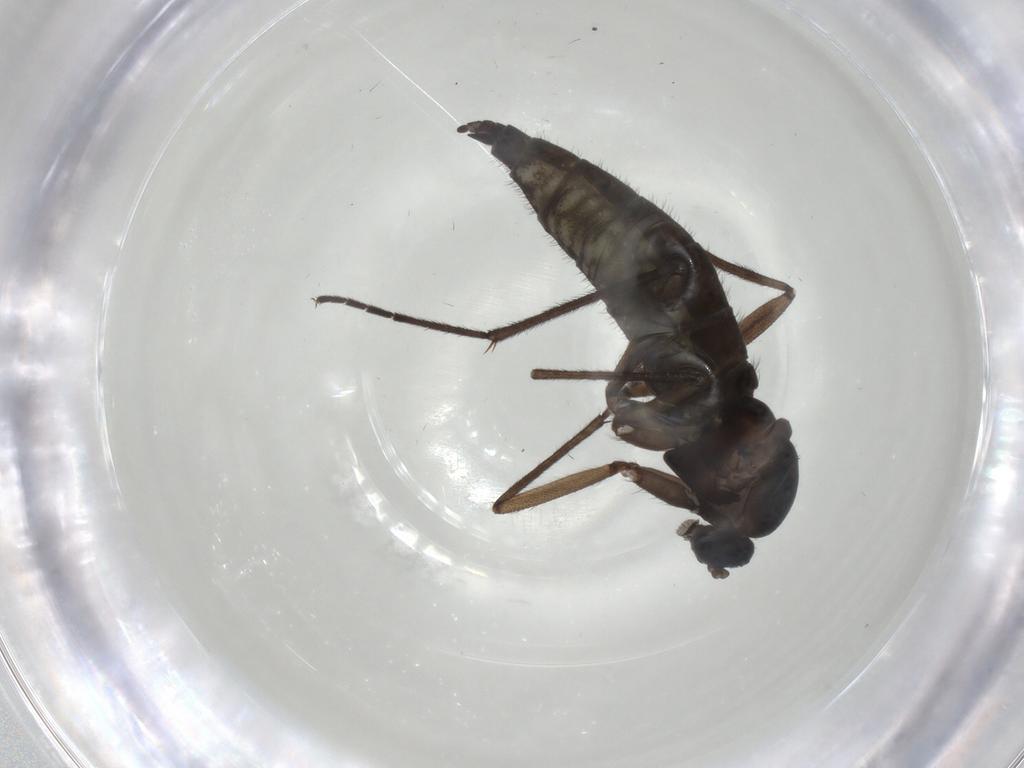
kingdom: Animalia
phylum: Arthropoda
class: Insecta
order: Diptera
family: Sciaridae
